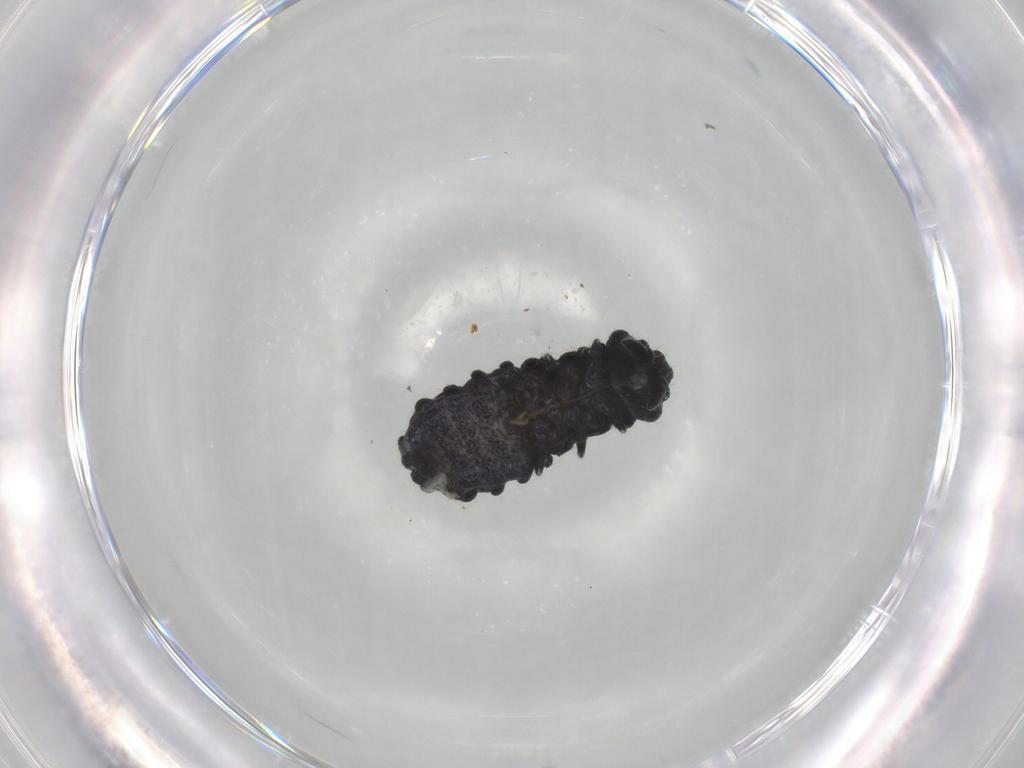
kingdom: Animalia
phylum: Arthropoda
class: Collembola
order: Poduromorpha
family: Neanuridae
